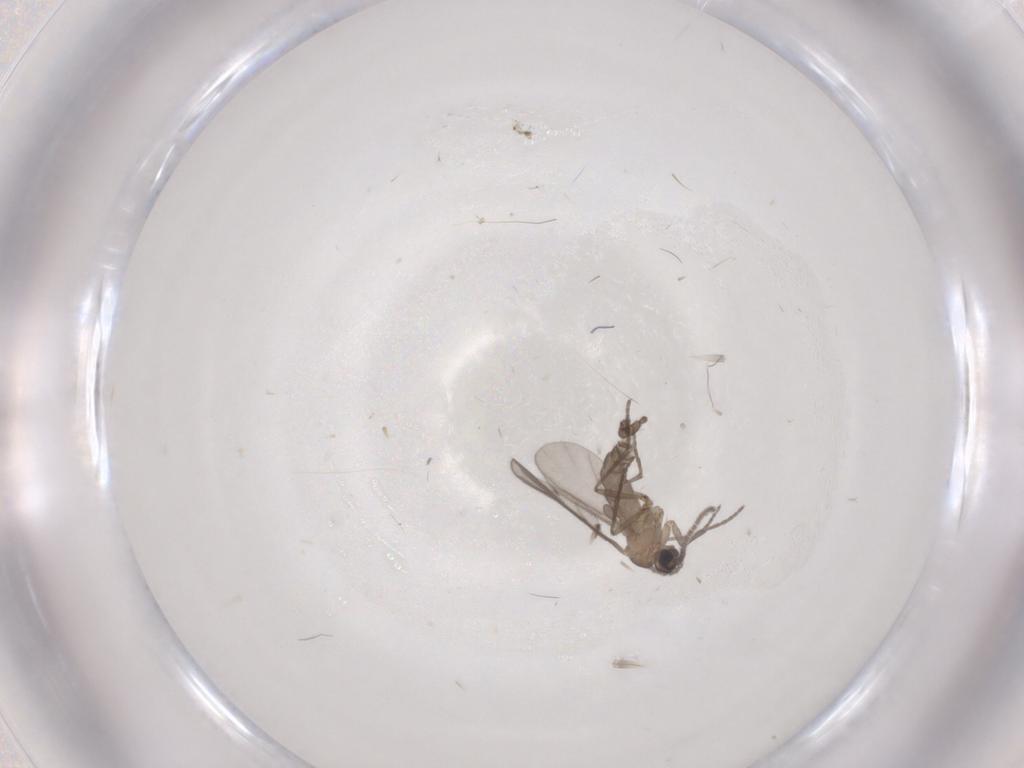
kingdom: Animalia
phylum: Arthropoda
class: Insecta
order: Diptera
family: Sciaridae
